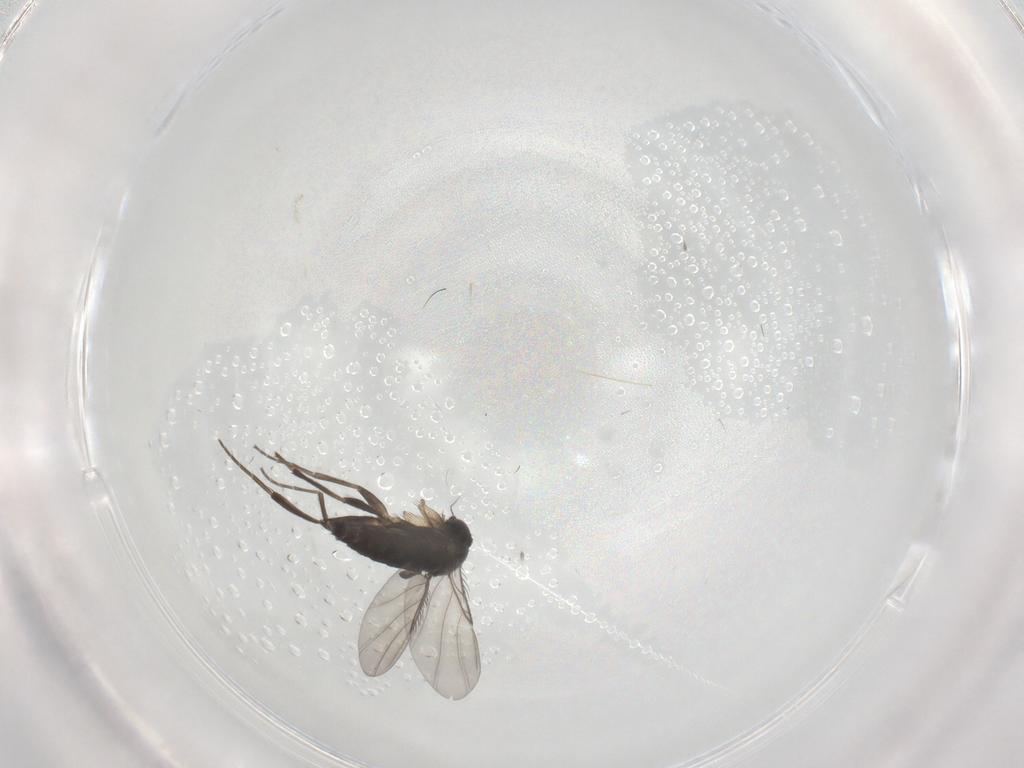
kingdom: Animalia
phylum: Arthropoda
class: Insecta
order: Diptera
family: Phoridae
